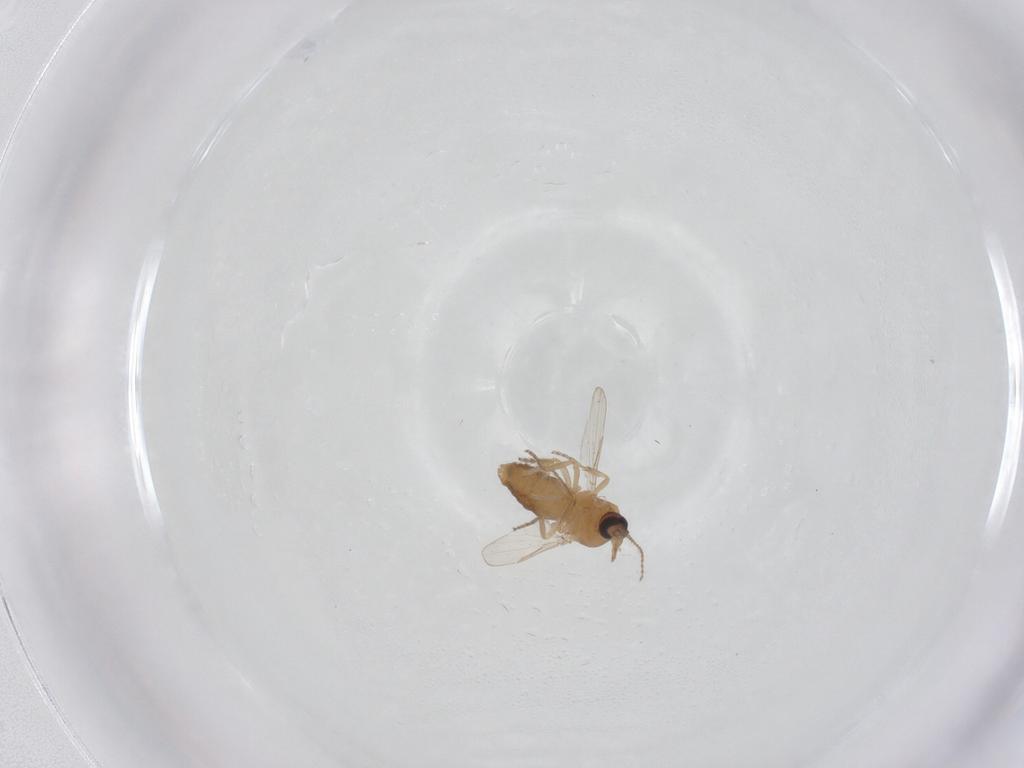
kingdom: Animalia
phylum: Arthropoda
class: Insecta
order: Diptera
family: Ceratopogonidae
